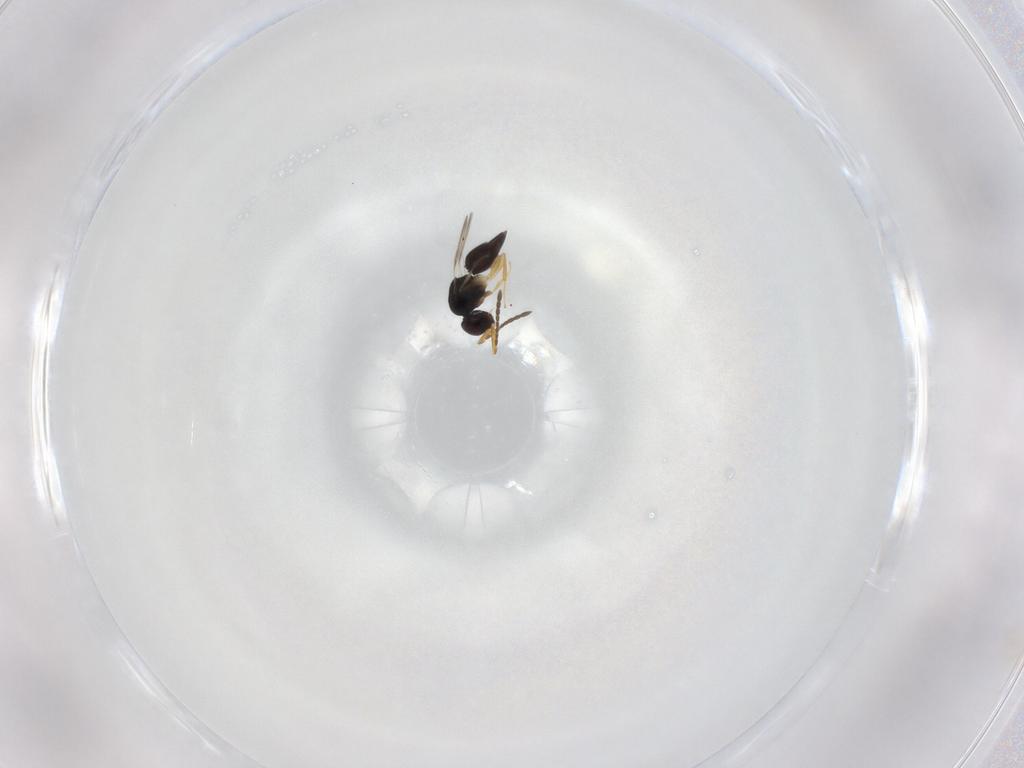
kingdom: Animalia
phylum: Arthropoda
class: Insecta
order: Hymenoptera
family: Ceraphronidae
